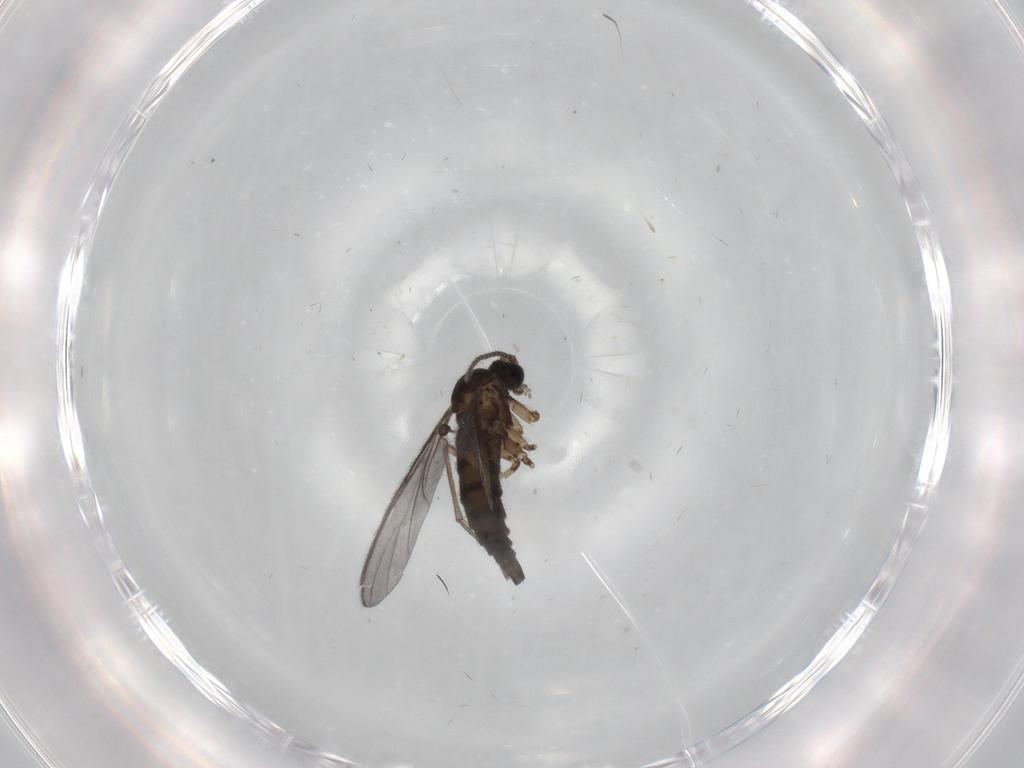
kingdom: Animalia
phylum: Arthropoda
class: Insecta
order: Diptera
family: Sciaridae
